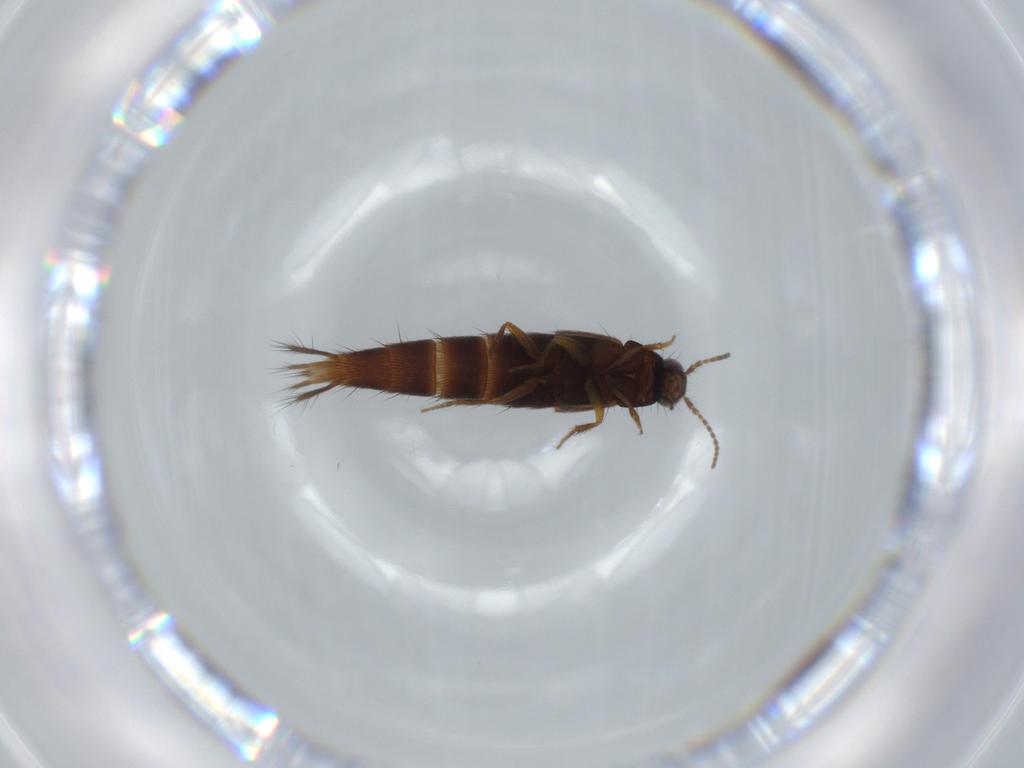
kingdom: Animalia
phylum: Arthropoda
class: Insecta
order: Coleoptera
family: Staphylinidae
